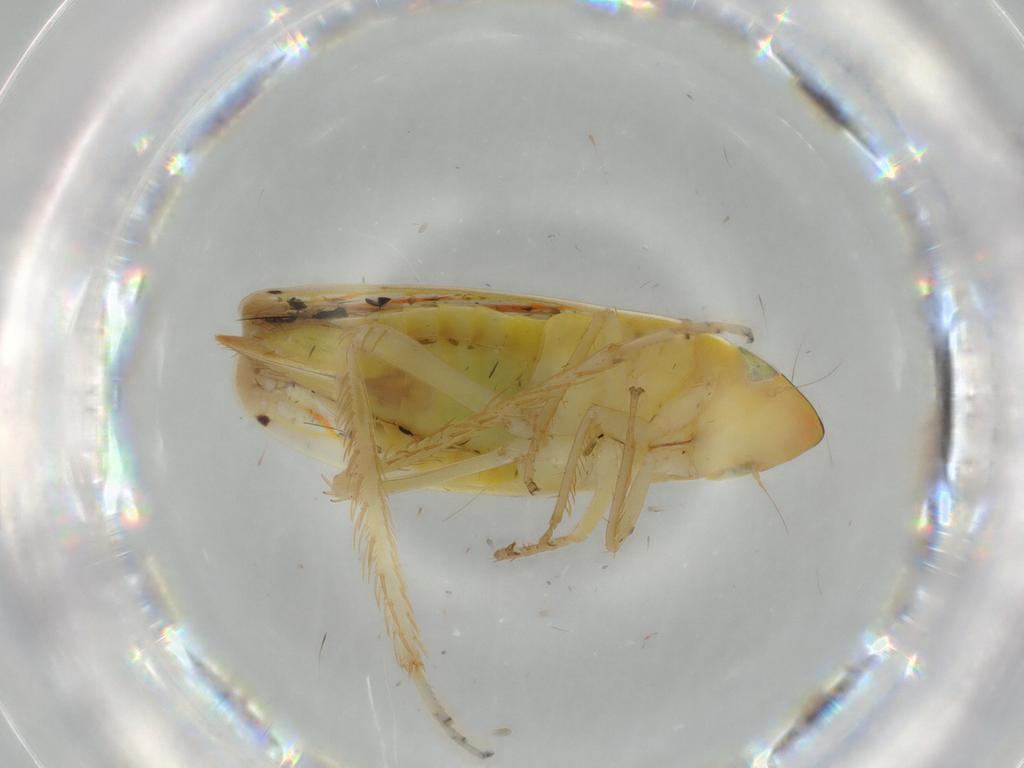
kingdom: Animalia
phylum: Arthropoda
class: Insecta
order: Hemiptera
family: Cicadellidae
